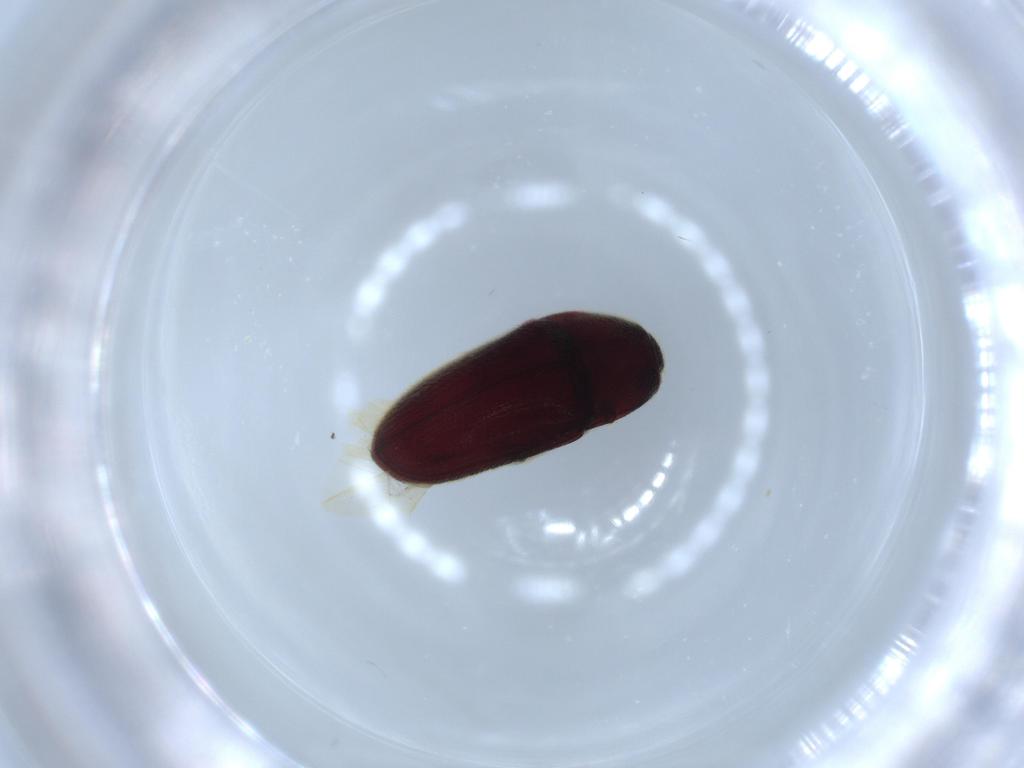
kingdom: Animalia
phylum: Arthropoda
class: Insecta
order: Coleoptera
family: Throscidae
